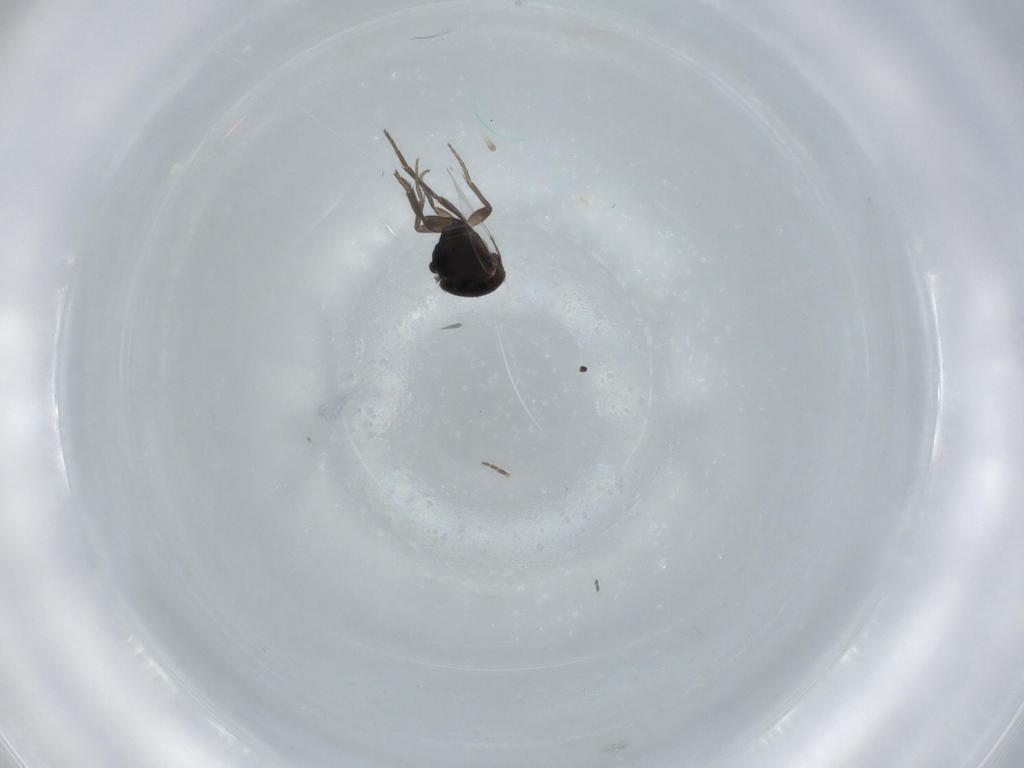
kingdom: Animalia
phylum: Arthropoda
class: Insecta
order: Diptera
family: Phoridae
